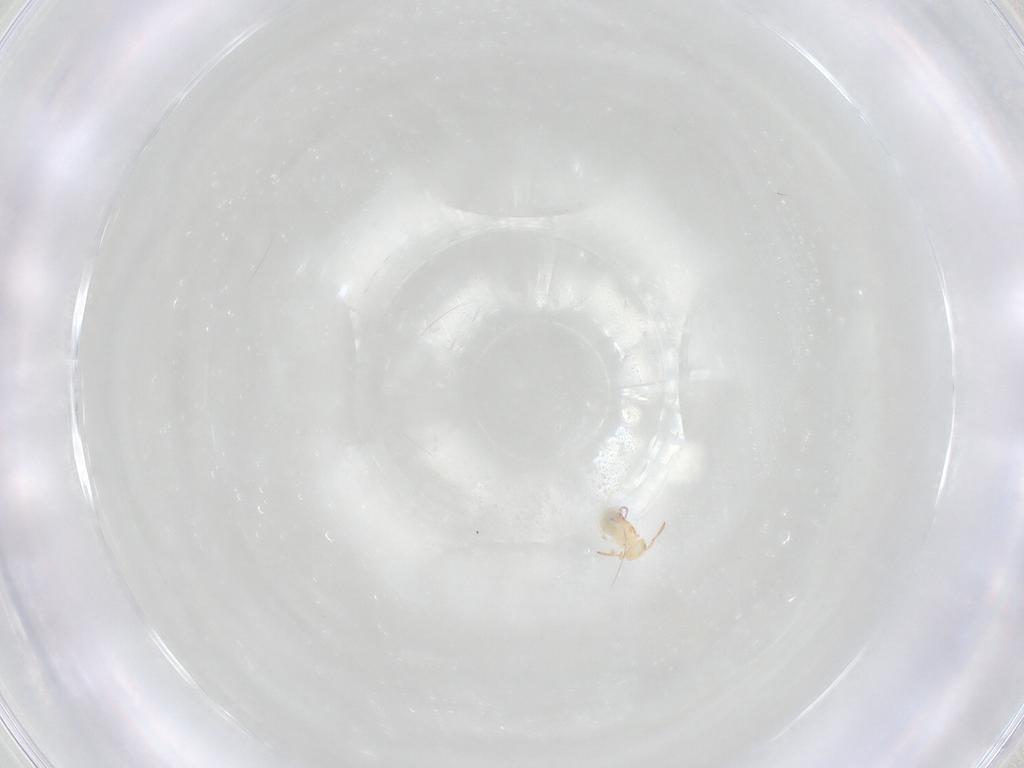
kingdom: Animalia
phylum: Arthropoda
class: Collembola
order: Symphypleona
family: Bourletiellidae
